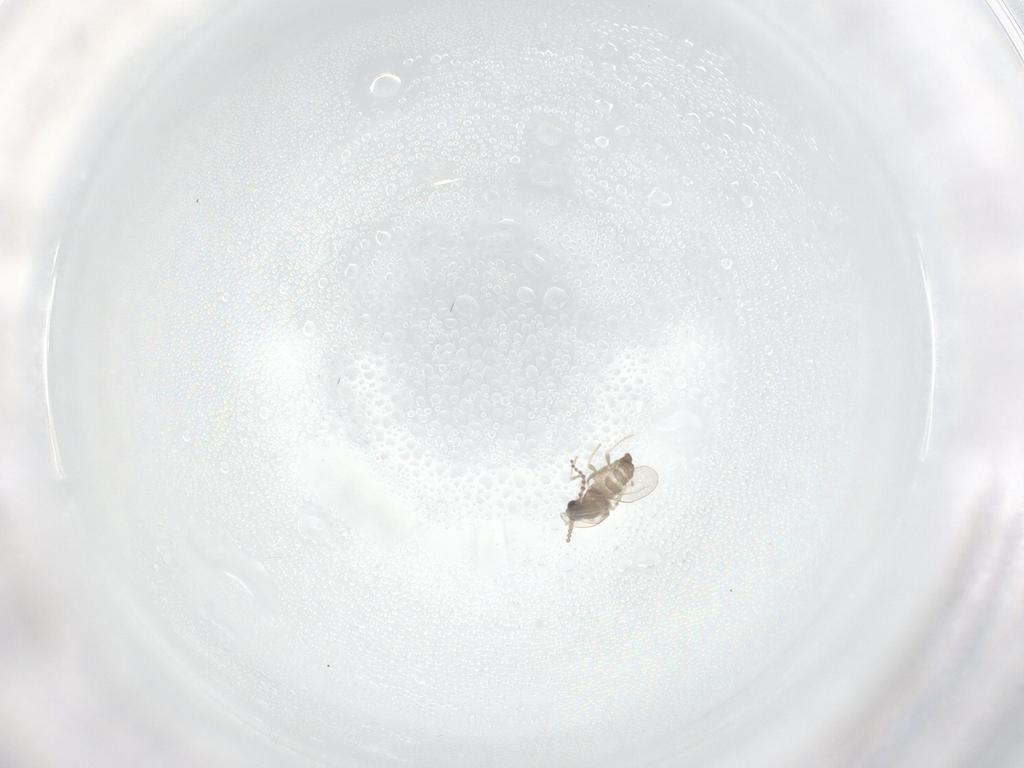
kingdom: Animalia
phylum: Arthropoda
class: Insecta
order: Diptera
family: Cecidomyiidae
